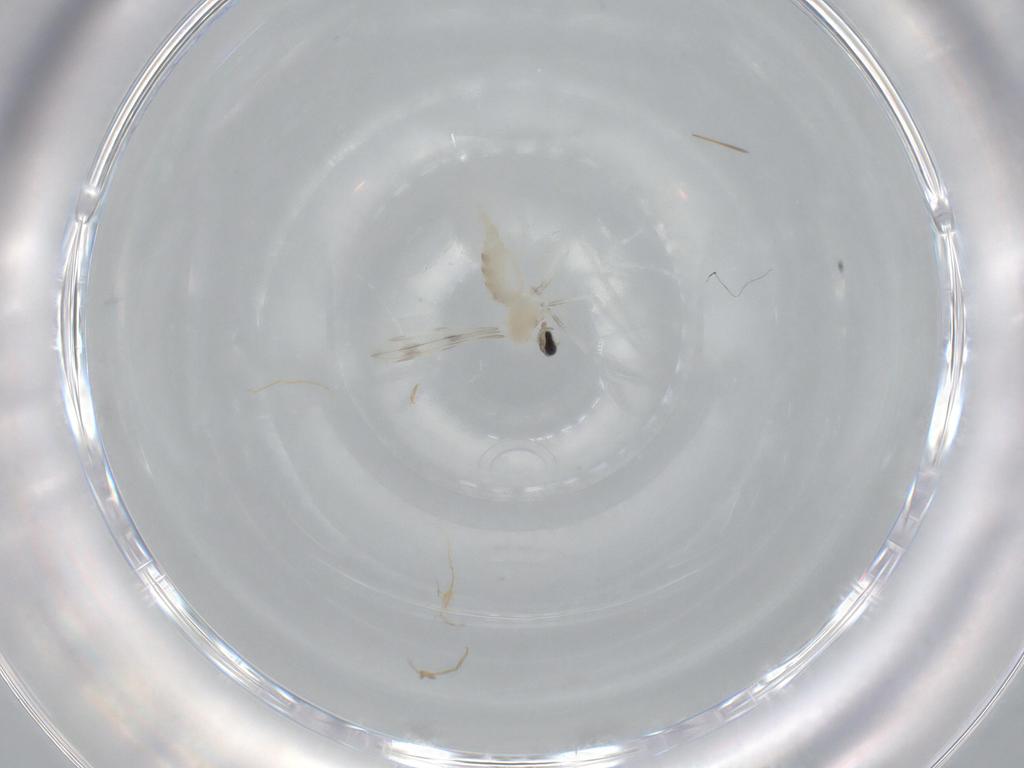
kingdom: Animalia
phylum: Arthropoda
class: Insecta
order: Diptera
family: Cecidomyiidae
